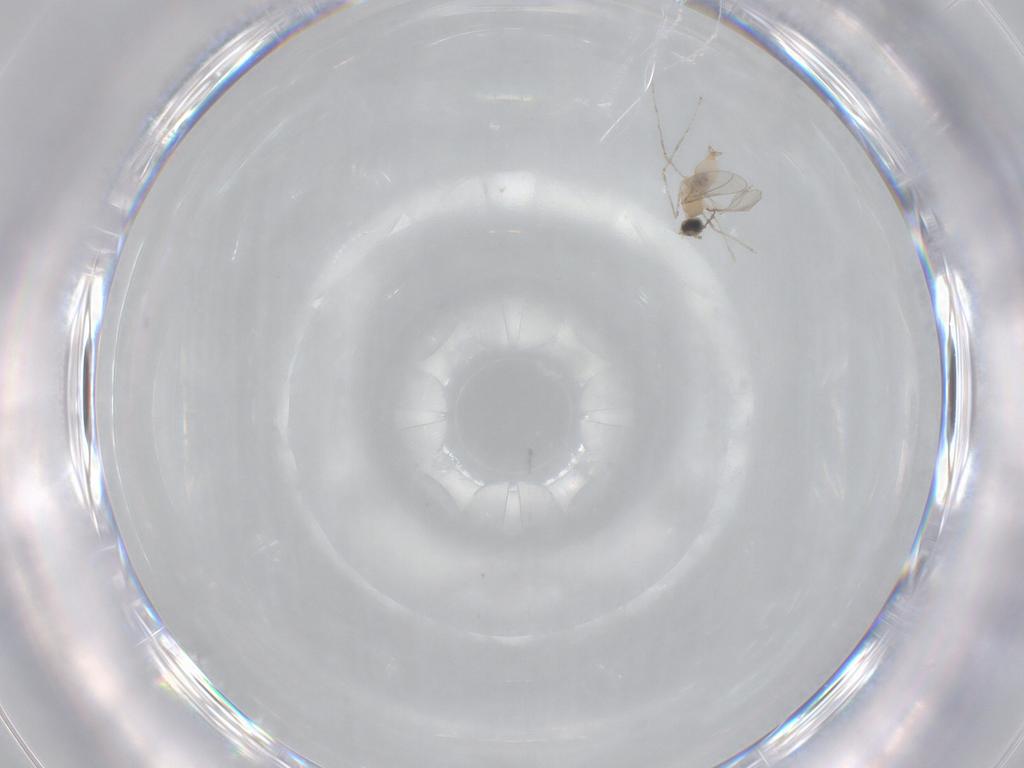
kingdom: Animalia
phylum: Arthropoda
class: Insecta
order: Diptera
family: Cecidomyiidae
